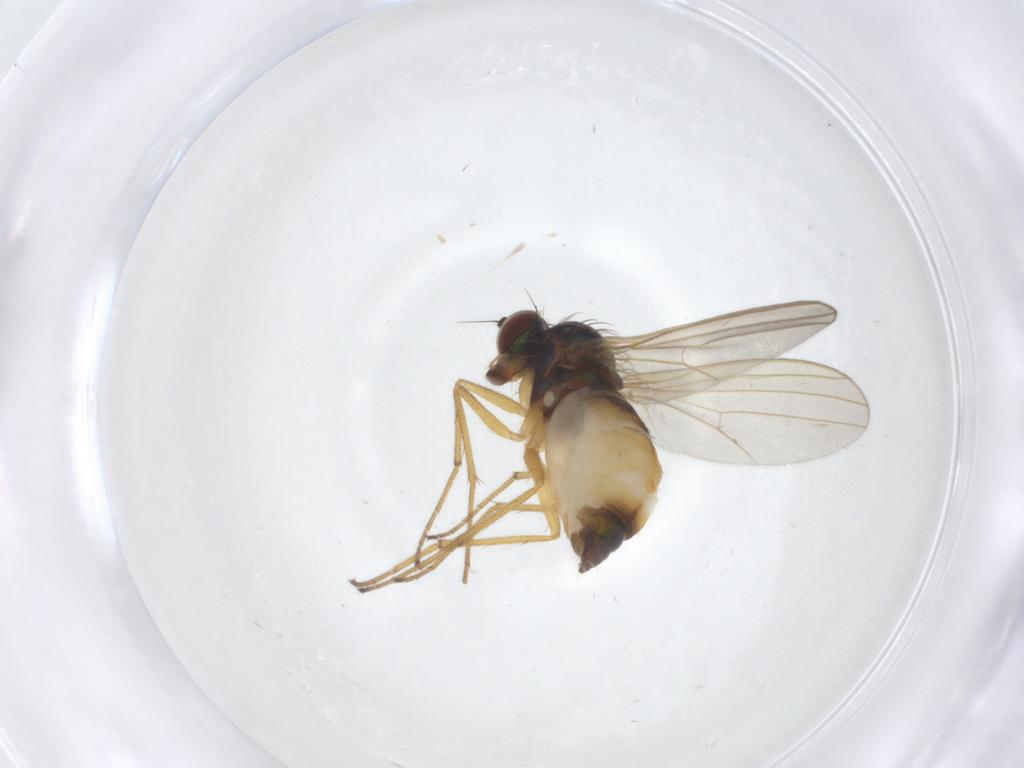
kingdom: Animalia
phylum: Arthropoda
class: Insecta
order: Diptera
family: Dolichopodidae
